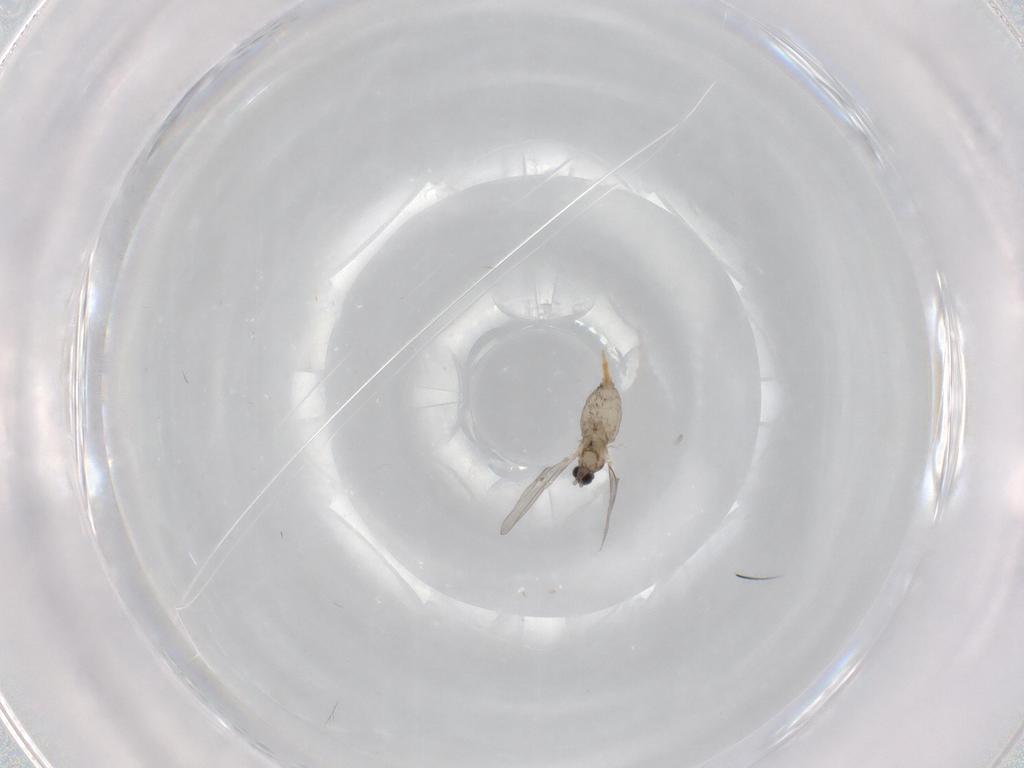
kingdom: Animalia
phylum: Arthropoda
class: Insecta
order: Diptera
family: Cecidomyiidae
